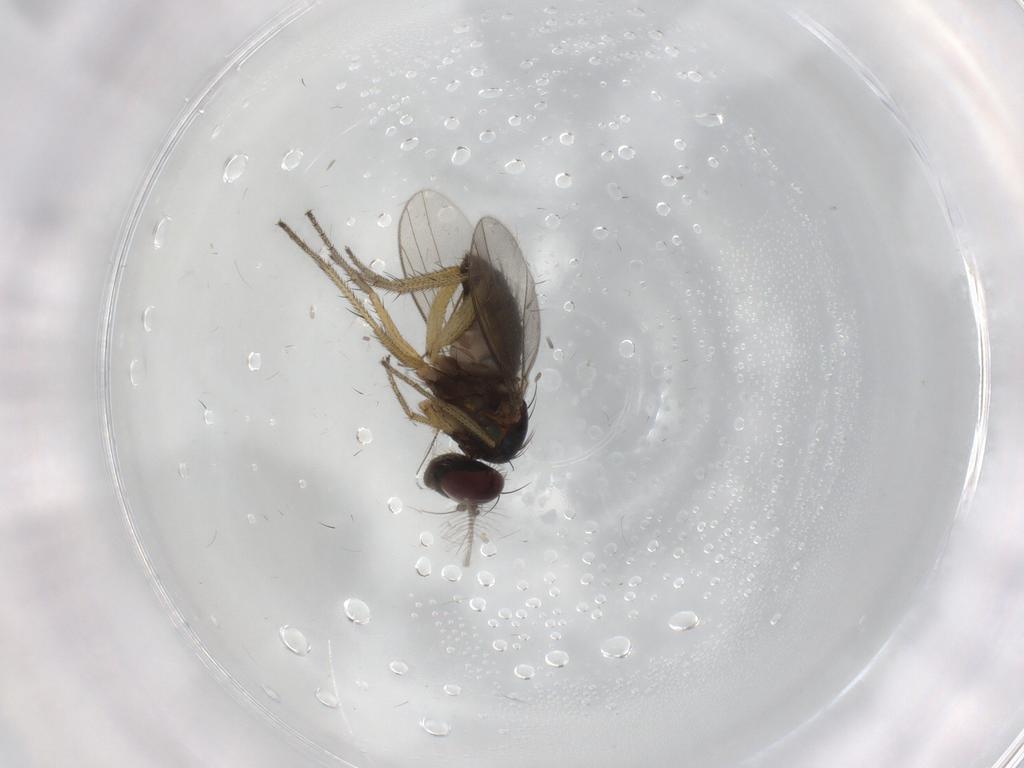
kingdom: Animalia
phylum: Arthropoda
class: Insecta
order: Diptera
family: Dolichopodidae
